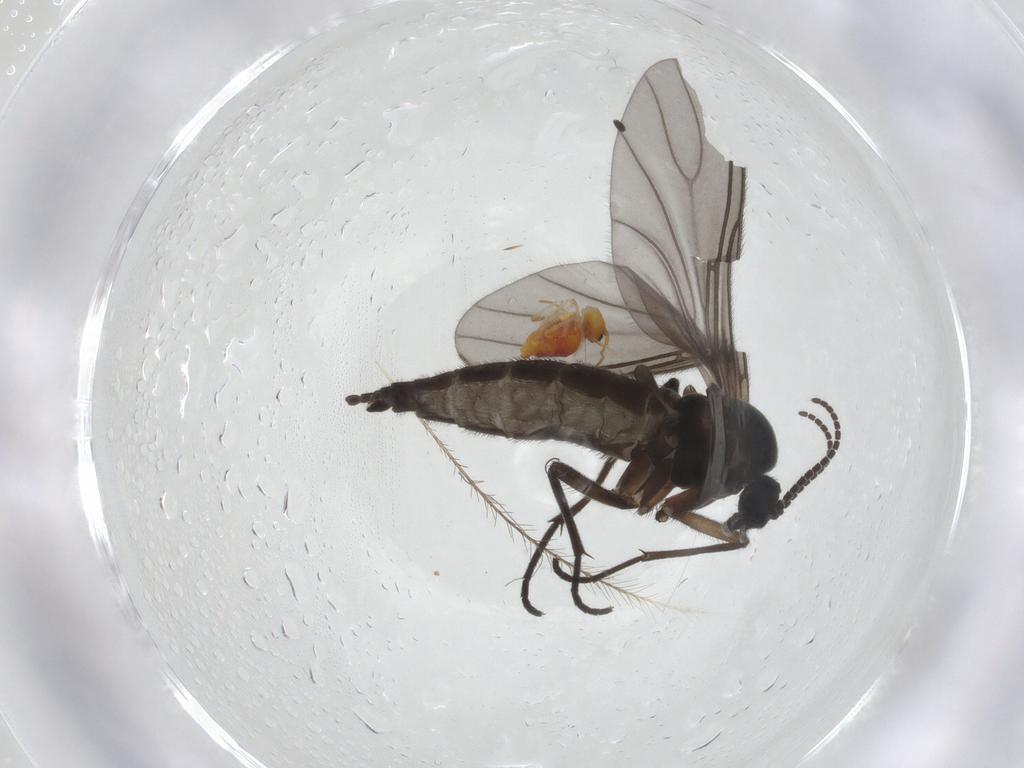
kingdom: Animalia
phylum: Arthropoda
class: Insecta
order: Diptera
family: Sciaridae
